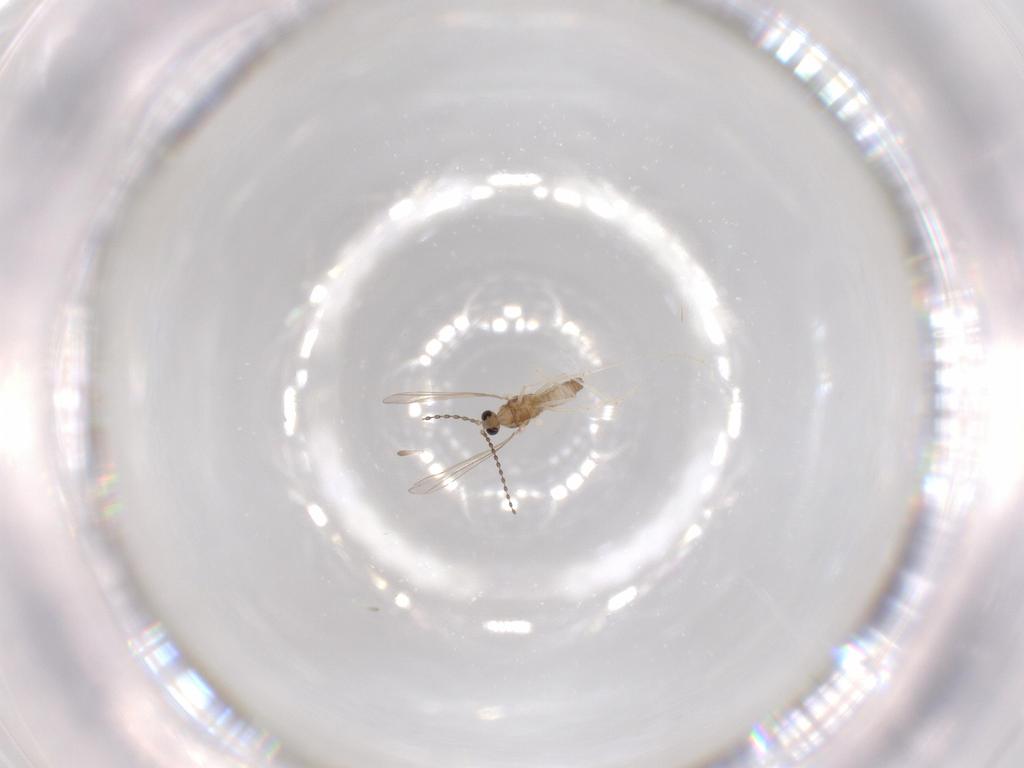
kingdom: Animalia
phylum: Arthropoda
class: Insecta
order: Diptera
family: Cecidomyiidae
